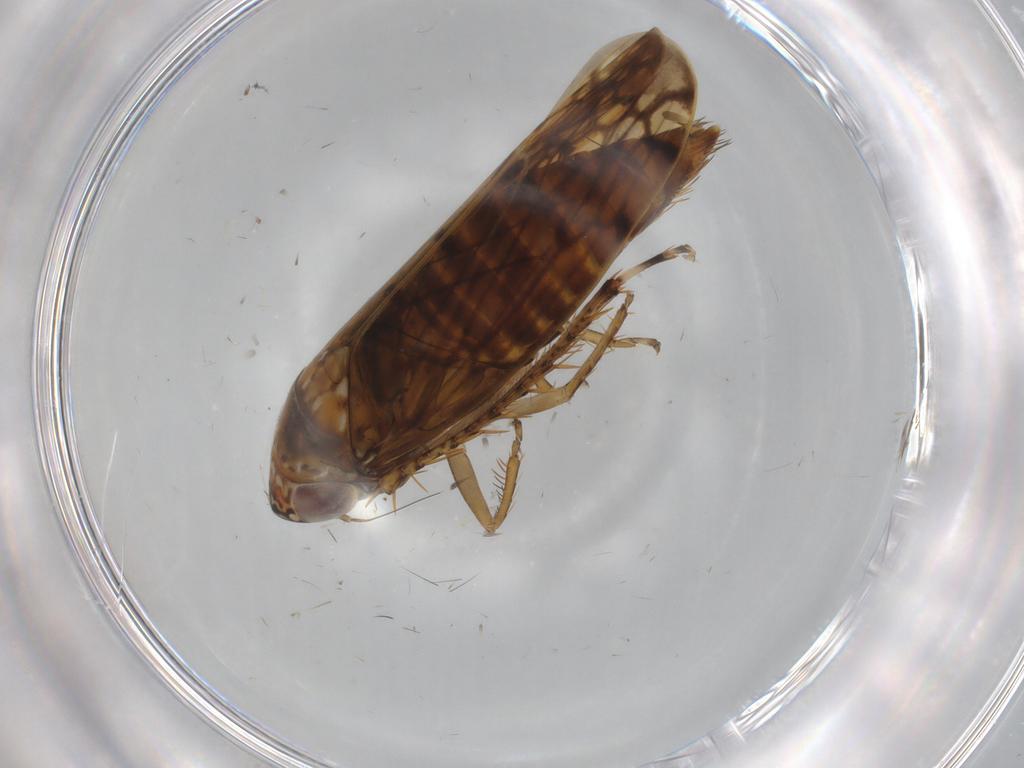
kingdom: Animalia
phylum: Arthropoda
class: Insecta
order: Hemiptera
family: Cicadellidae
